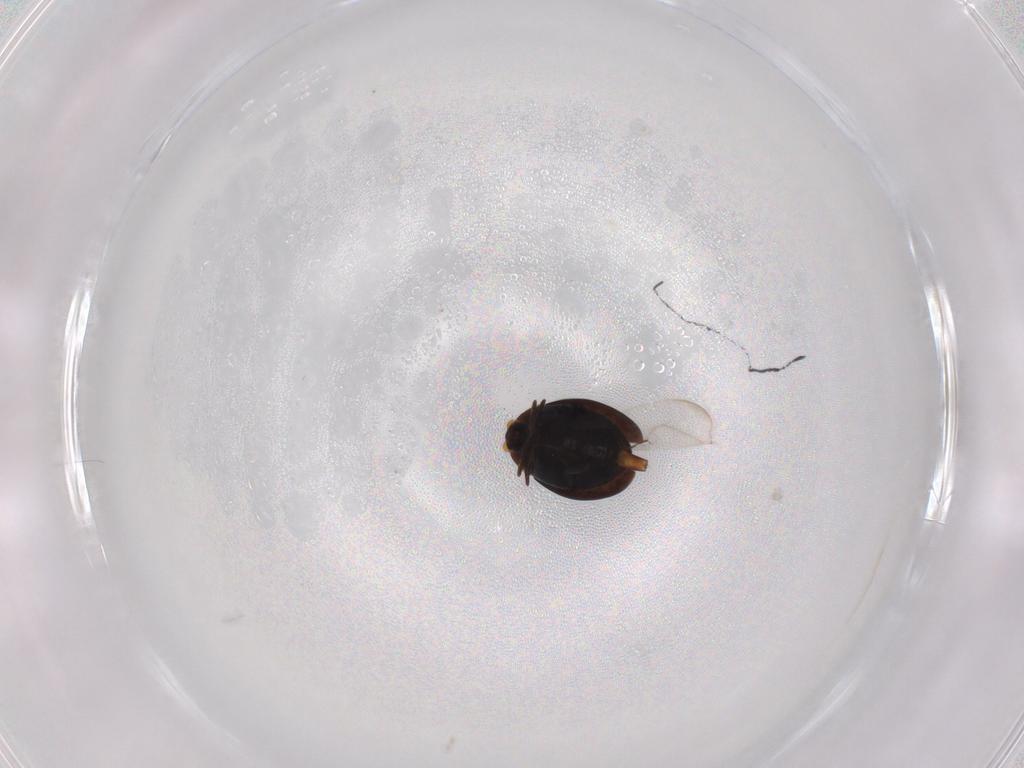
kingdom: Animalia
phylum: Arthropoda
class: Insecta
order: Coleoptera
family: Corylophidae
